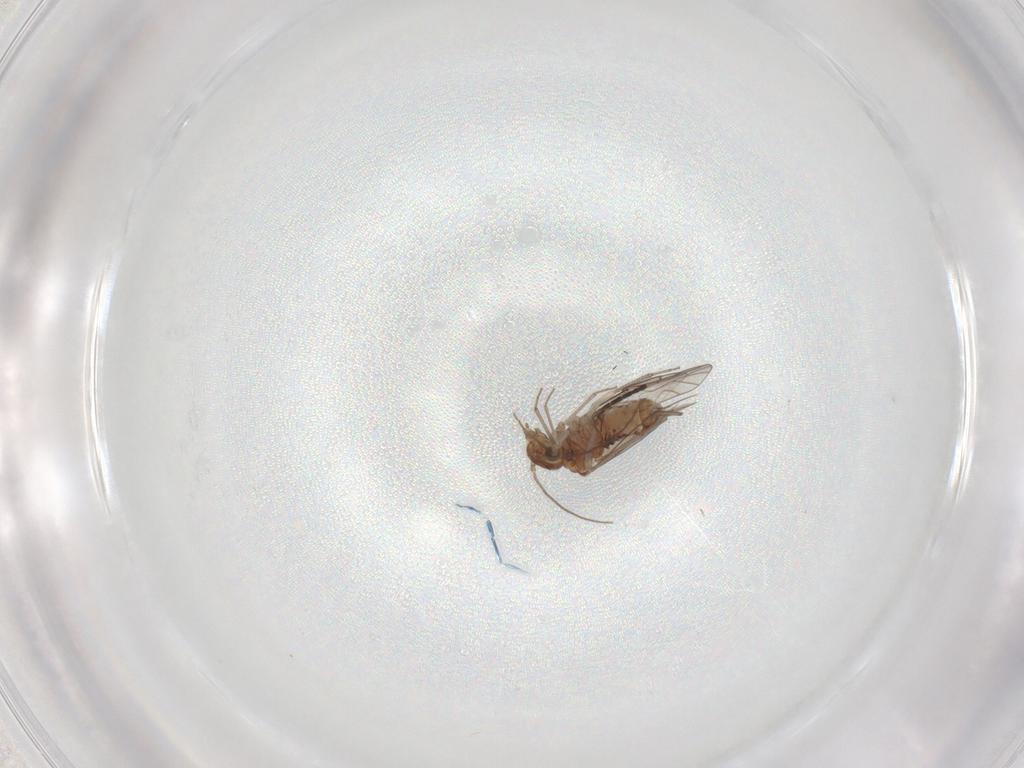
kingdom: Animalia
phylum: Arthropoda
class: Insecta
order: Psocodea
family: Lachesillidae
